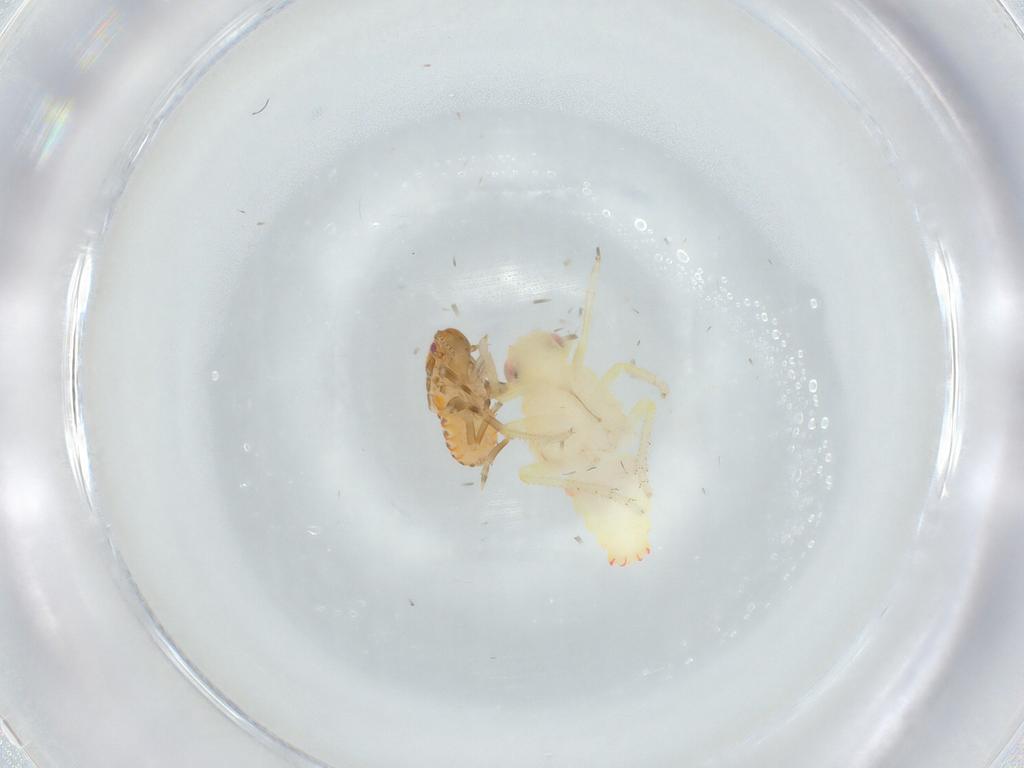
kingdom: Animalia
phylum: Arthropoda
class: Insecta
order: Hemiptera
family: Flatidae
